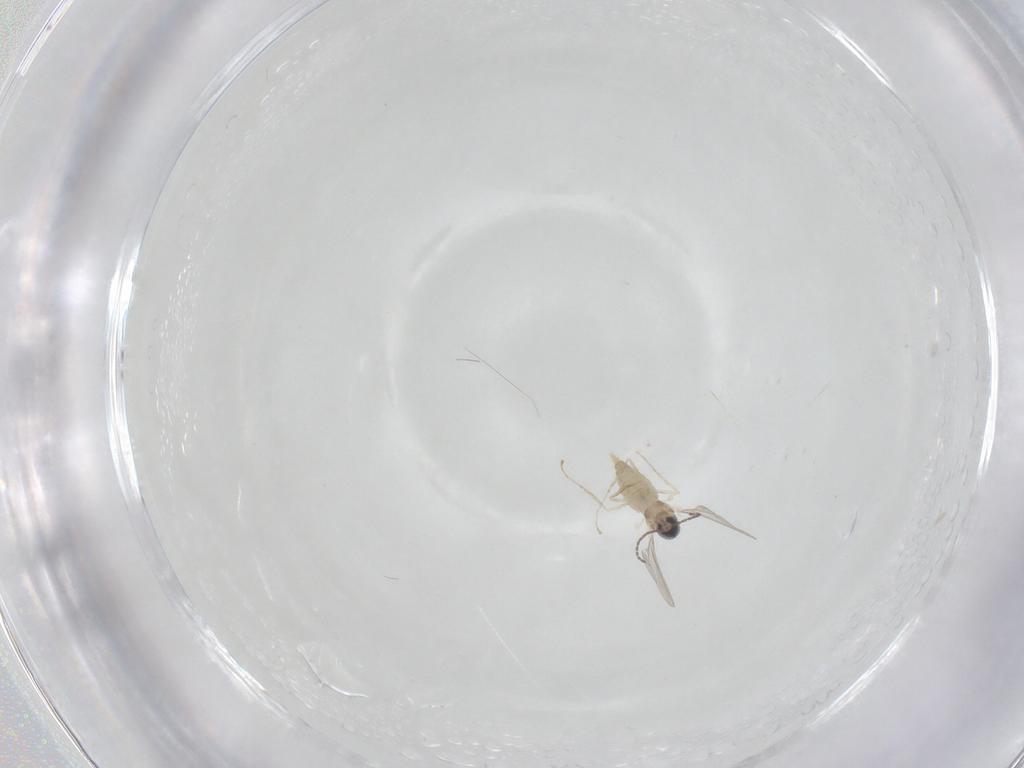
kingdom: Animalia
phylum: Arthropoda
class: Insecta
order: Diptera
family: Cecidomyiidae
